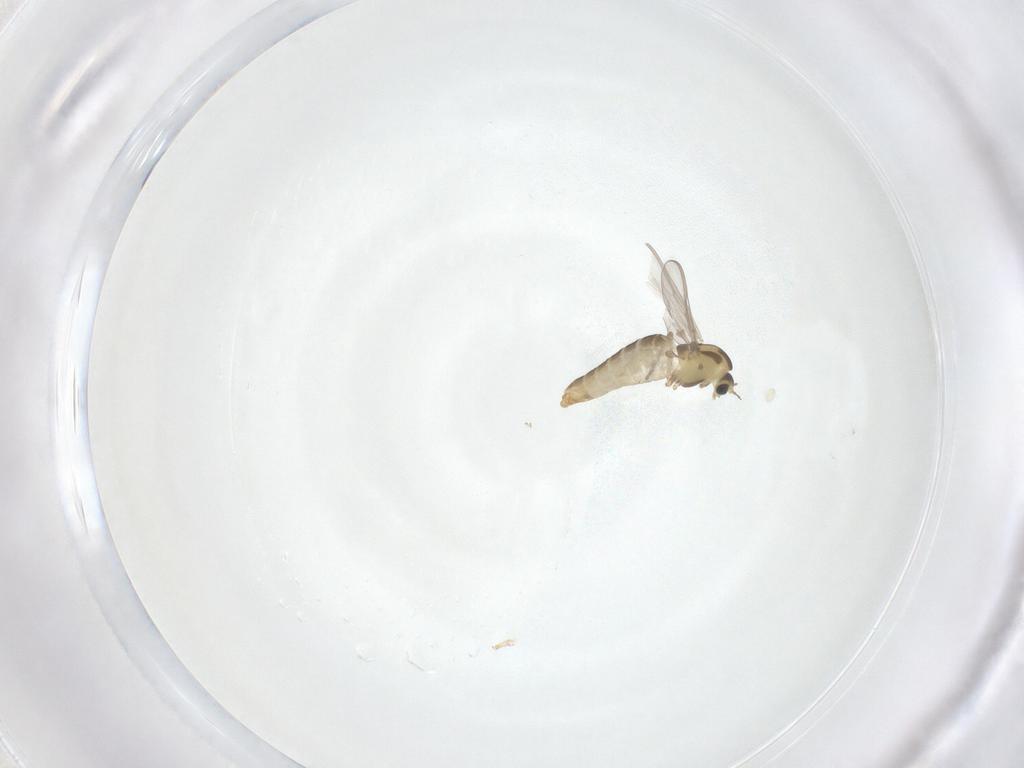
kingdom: Animalia
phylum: Arthropoda
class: Insecta
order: Diptera
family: Chironomidae
